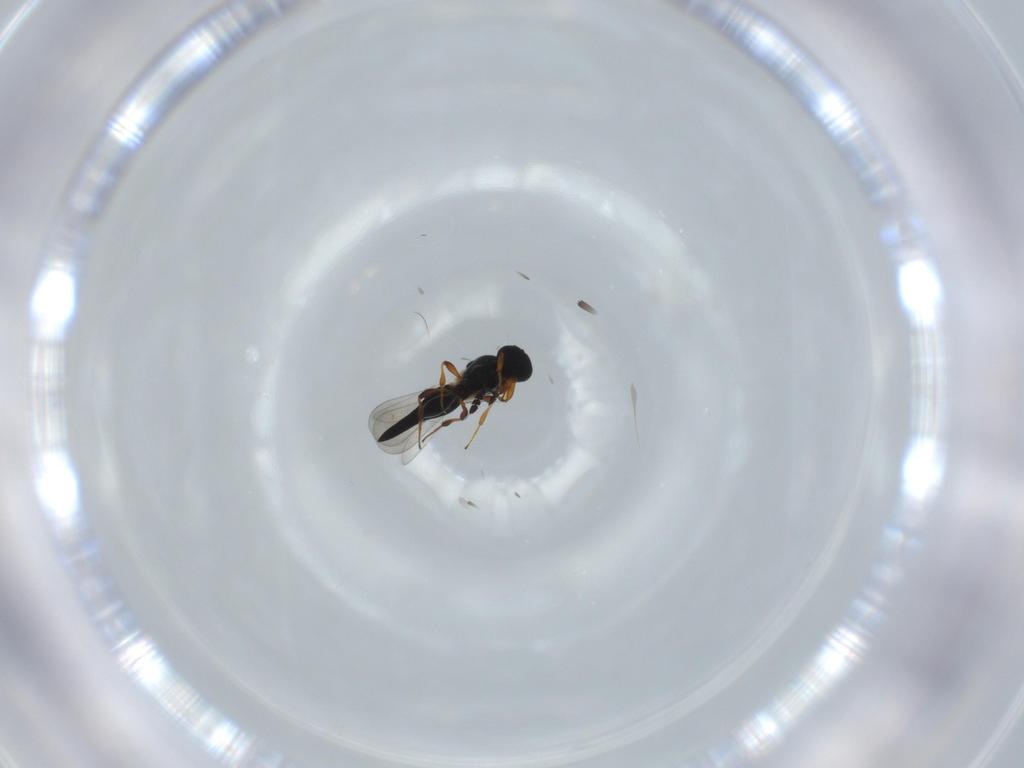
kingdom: Animalia
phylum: Arthropoda
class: Insecta
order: Hymenoptera
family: Platygastridae
